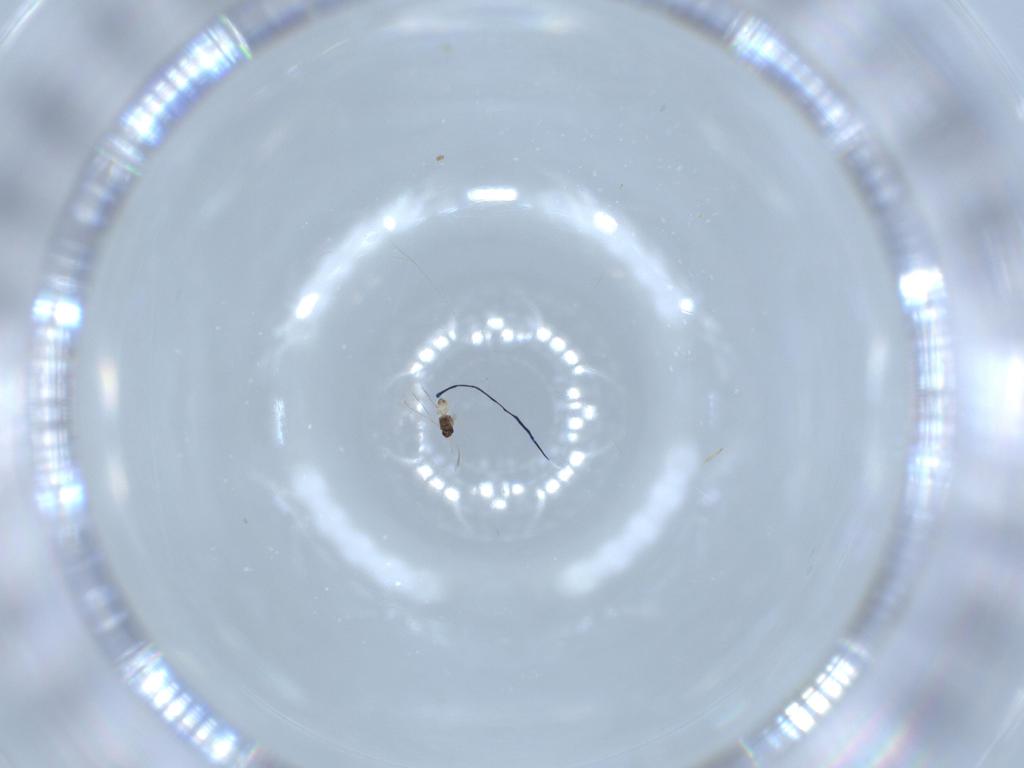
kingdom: Animalia
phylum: Arthropoda
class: Insecta
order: Hymenoptera
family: Mymaridae
